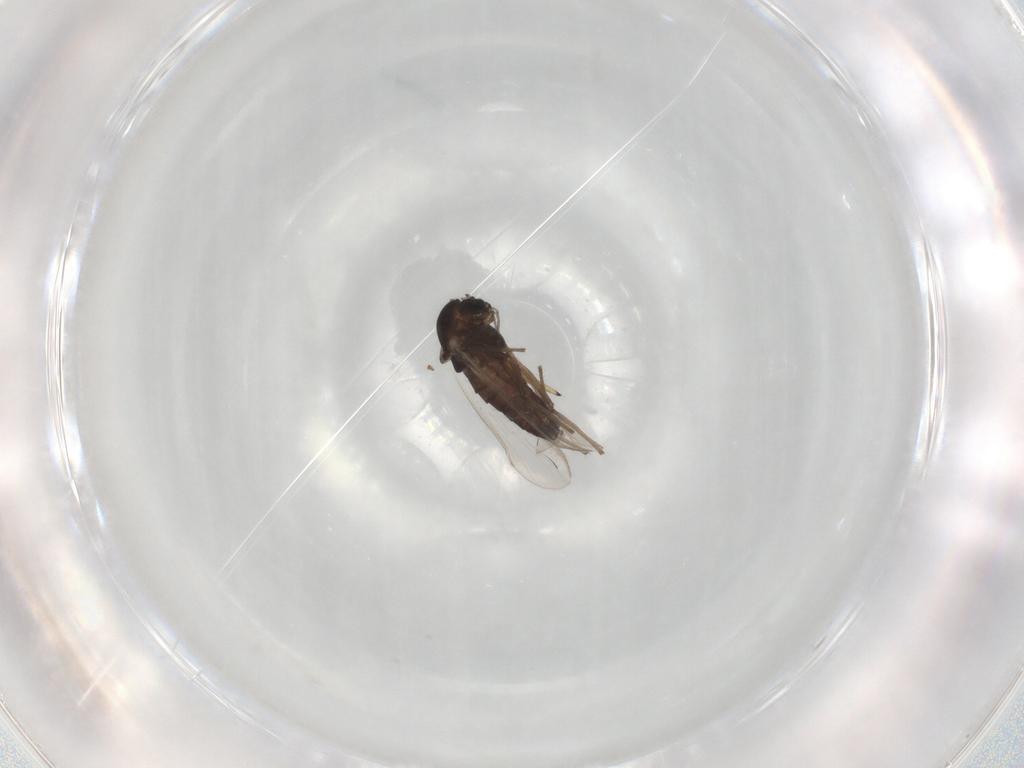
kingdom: Animalia
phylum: Arthropoda
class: Insecta
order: Diptera
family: Chironomidae
